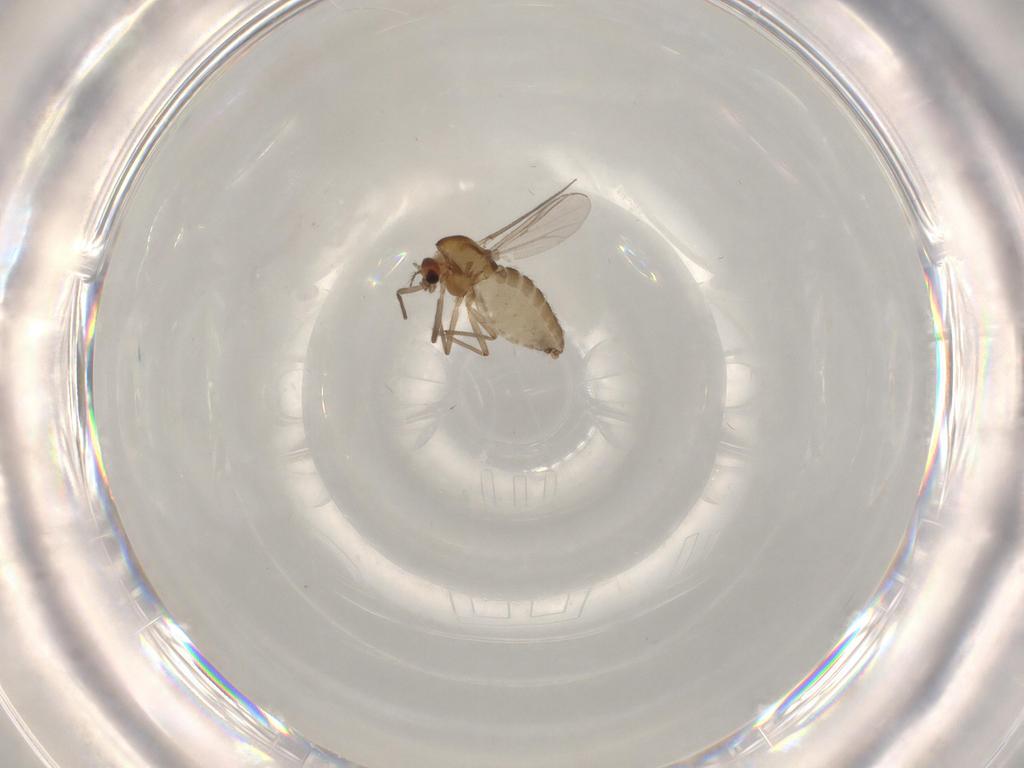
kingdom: Animalia
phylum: Arthropoda
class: Insecta
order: Diptera
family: Chironomidae
